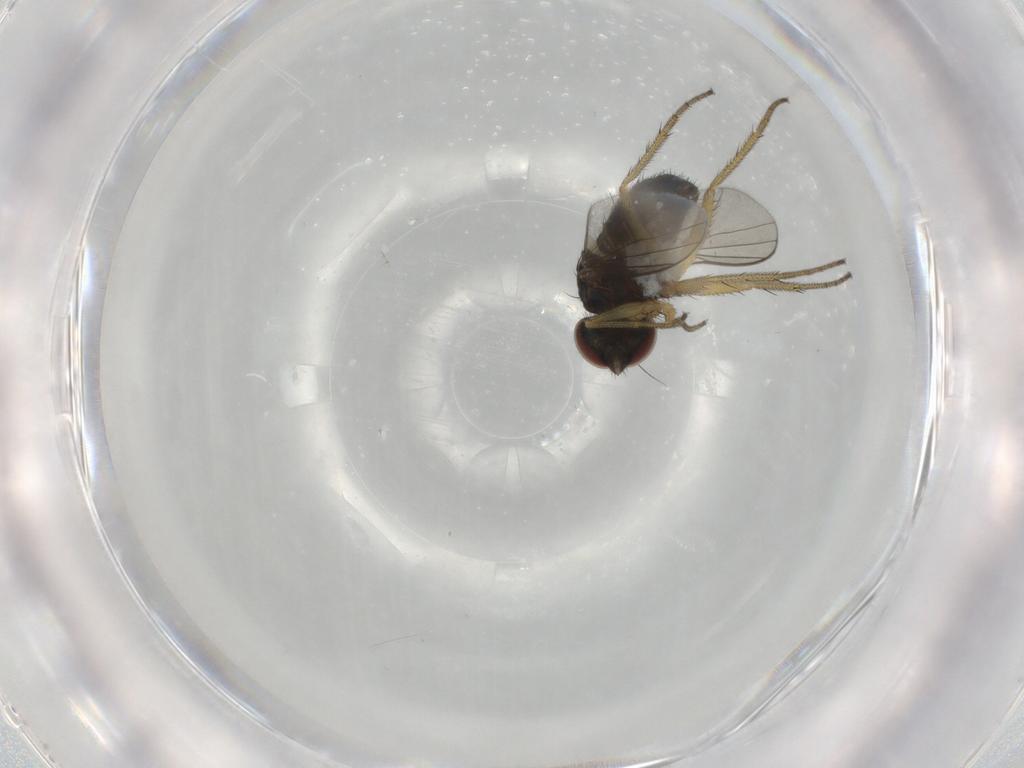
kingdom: Animalia
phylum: Arthropoda
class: Insecta
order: Diptera
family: Dolichopodidae
